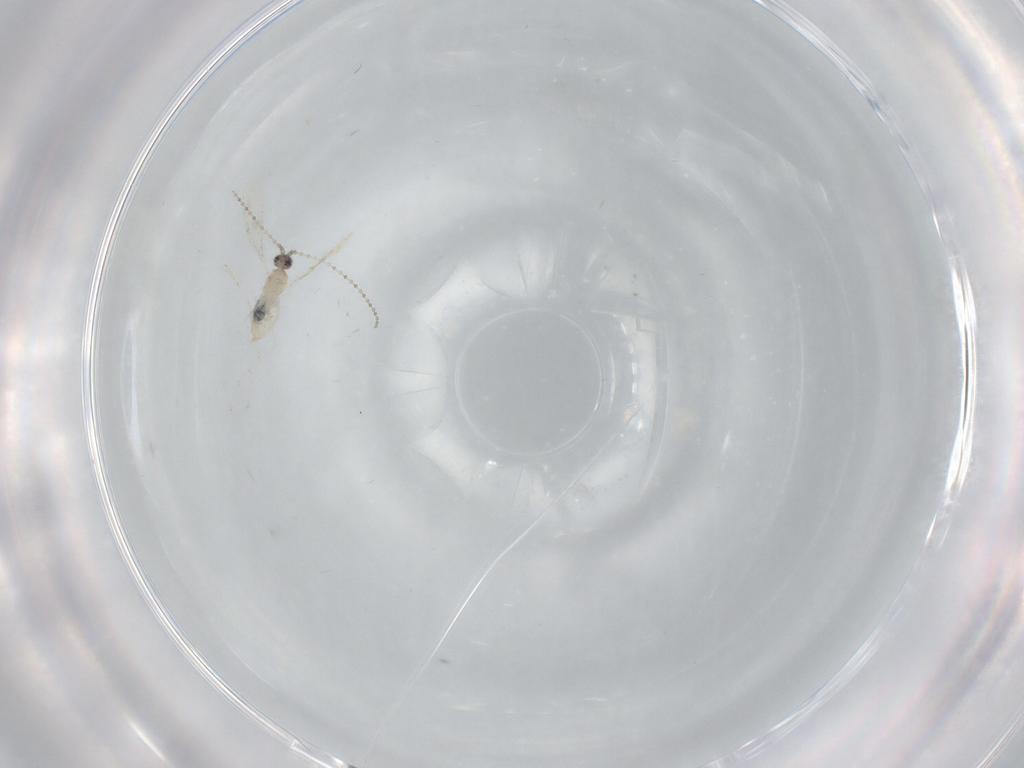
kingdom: Animalia
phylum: Arthropoda
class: Insecta
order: Diptera
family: Cecidomyiidae
